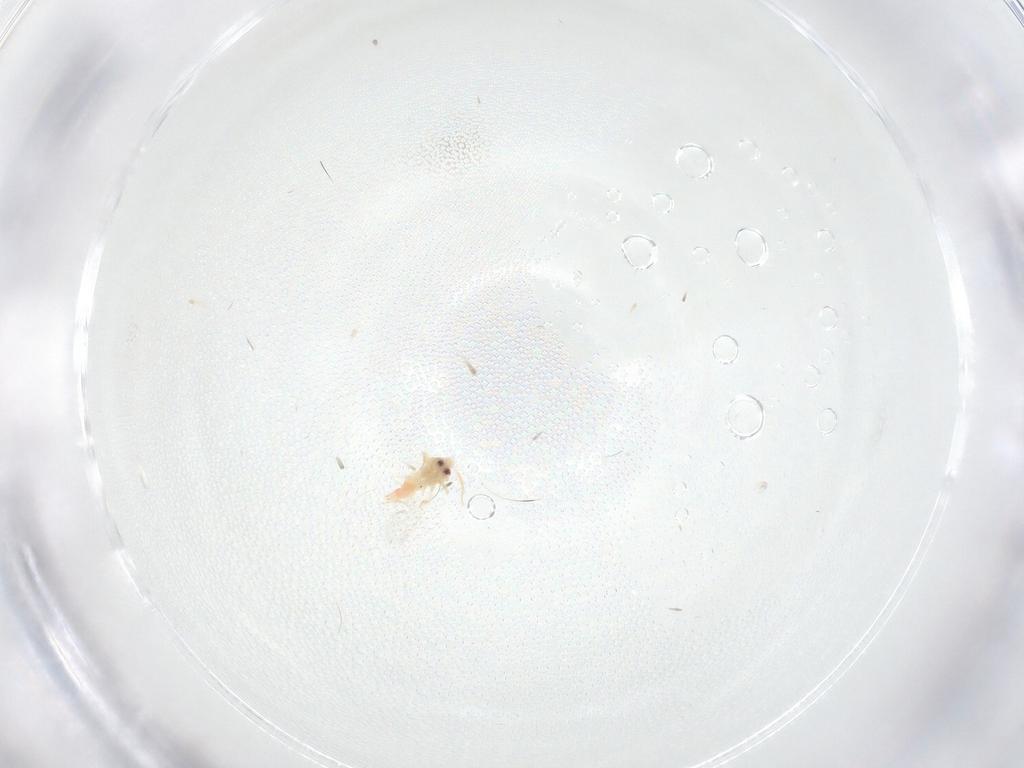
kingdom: Animalia
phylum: Arthropoda
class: Insecta
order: Hemiptera
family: Aleyrodidae
